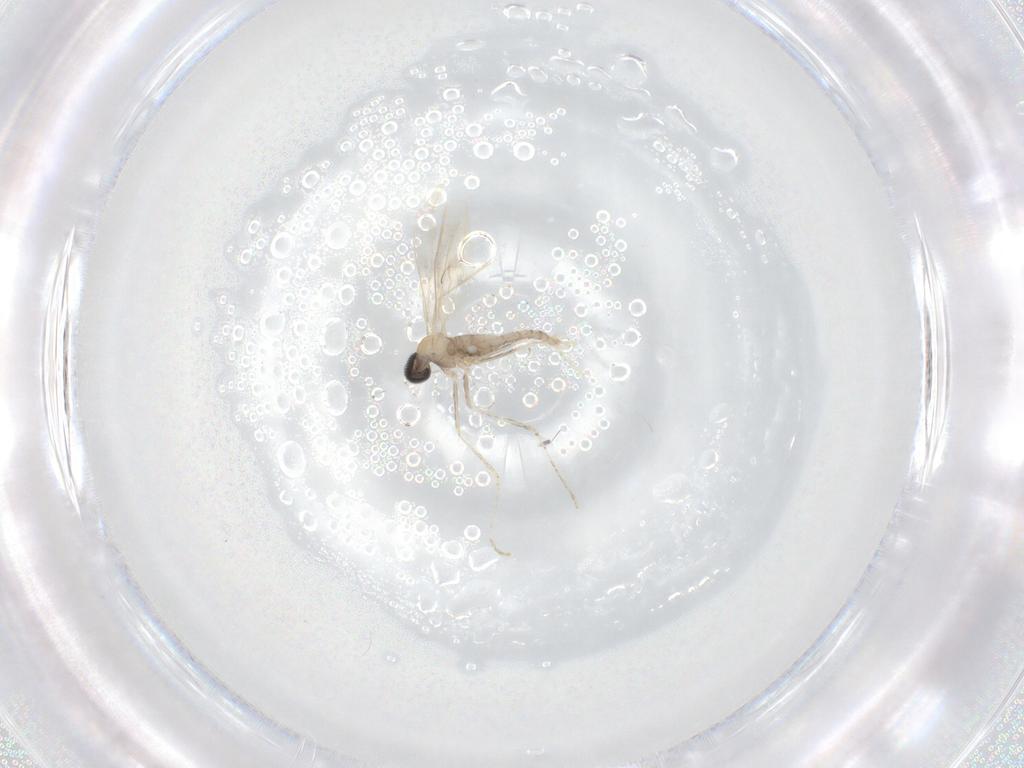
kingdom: Animalia
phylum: Arthropoda
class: Insecta
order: Diptera
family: Cecidomyiidae
